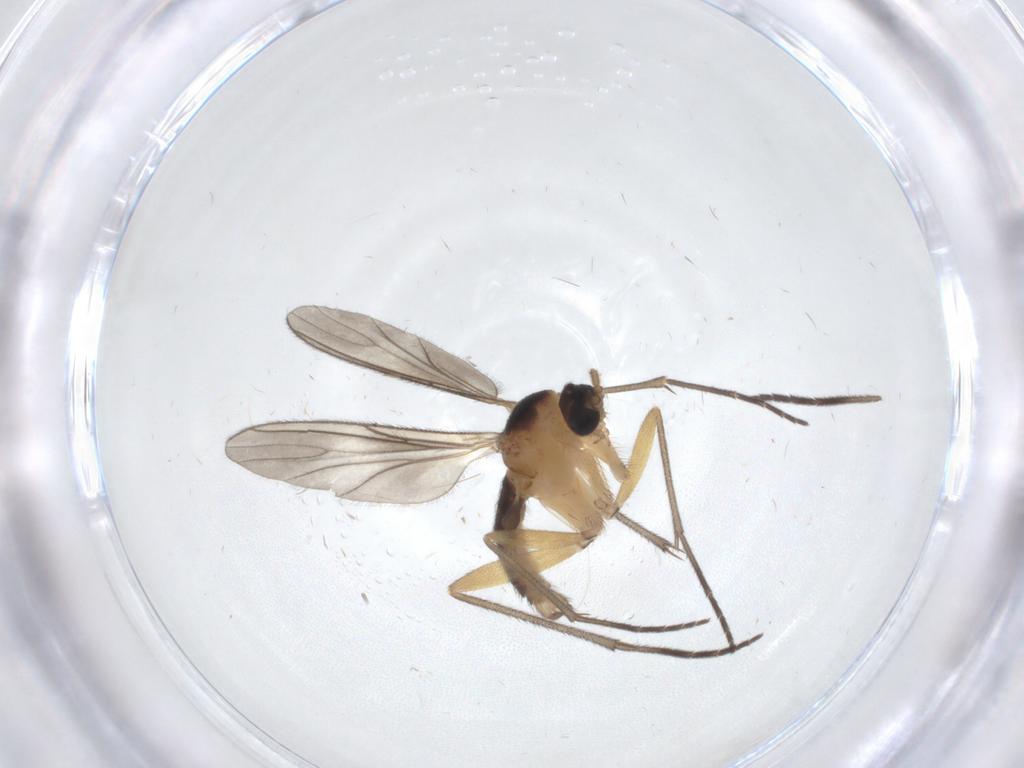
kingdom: Animalia
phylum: Arthropoda
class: Insecta
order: Diptera
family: Sciaridae
